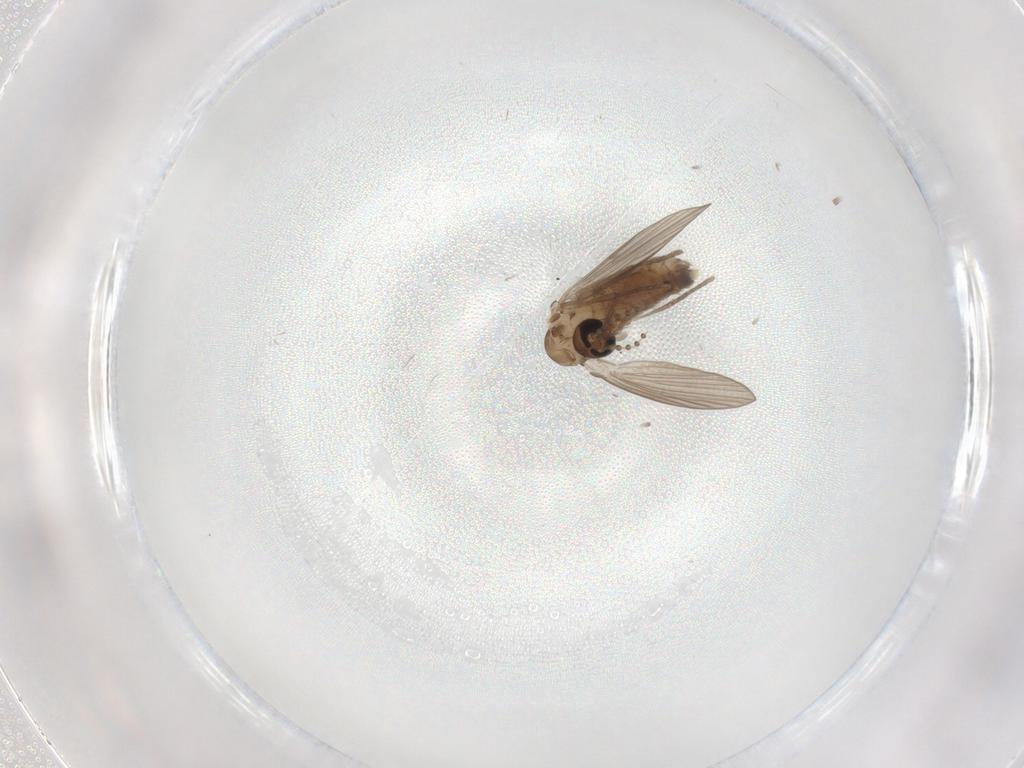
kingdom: Animalia
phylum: Arthropoda
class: Insecta
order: Diptera
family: Cecidomyiidae
